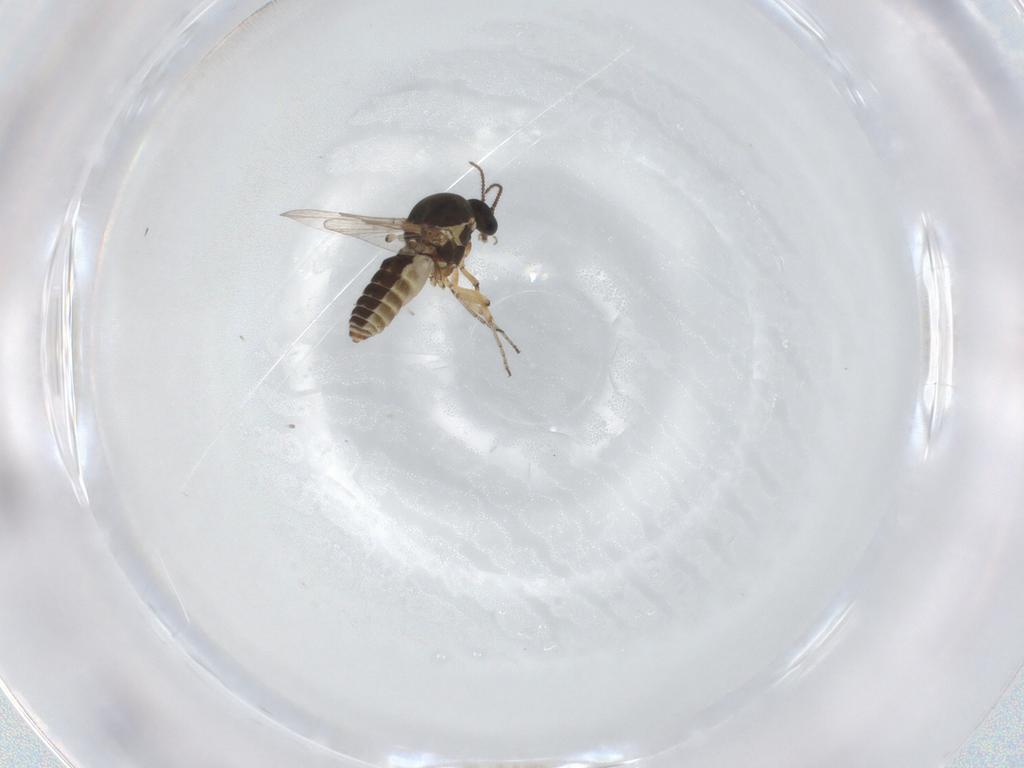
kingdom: Animalia
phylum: Arthropoda
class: Insecta
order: Diptera
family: Ceratopogonidae
